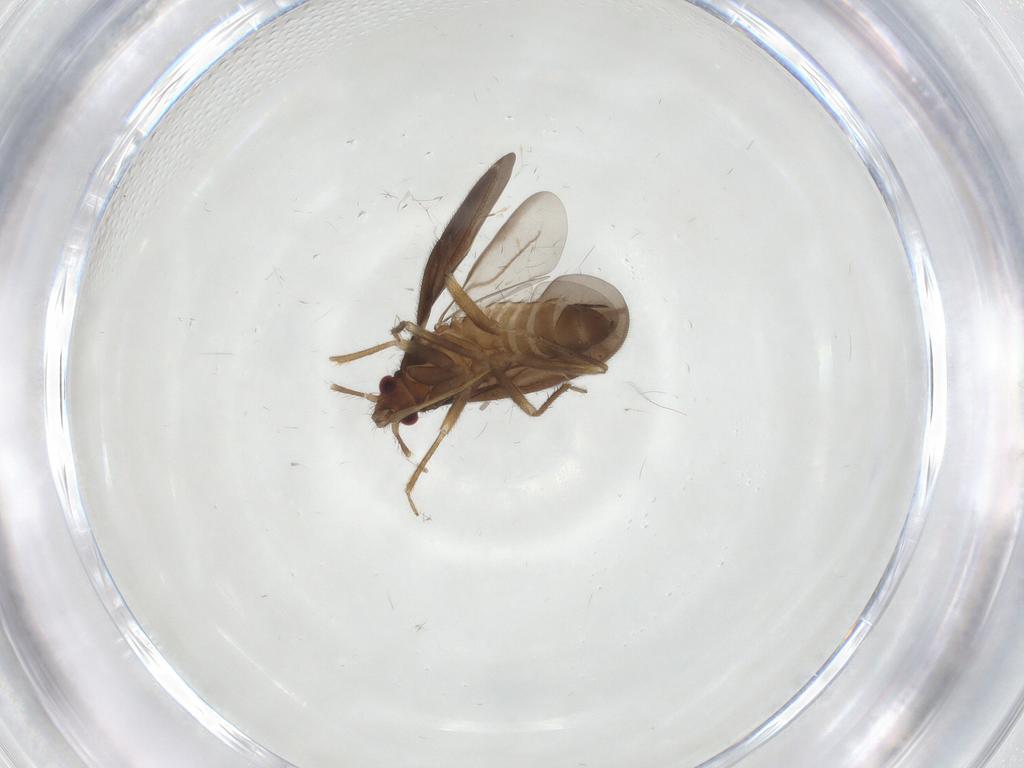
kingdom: Animalia
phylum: Arthropoda
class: Insecta
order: Hemiptera
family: Ceratocombidae
